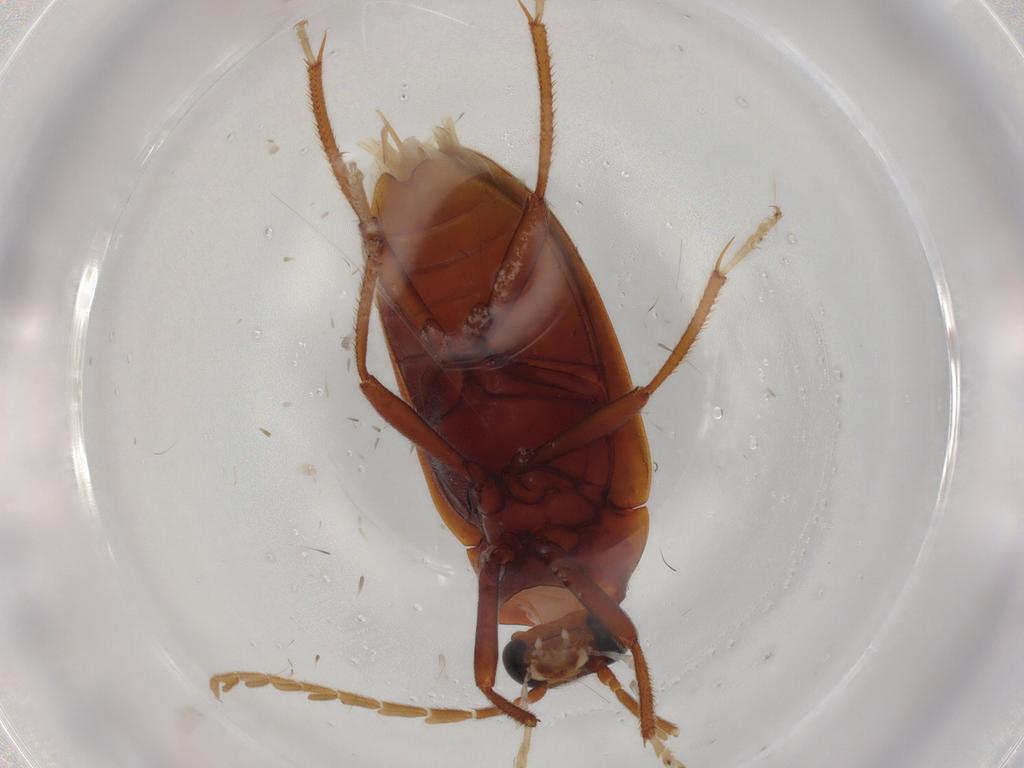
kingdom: Animalia
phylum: Arthropoda
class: Insecta
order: Coleoptera
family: Ptilodactylidae
